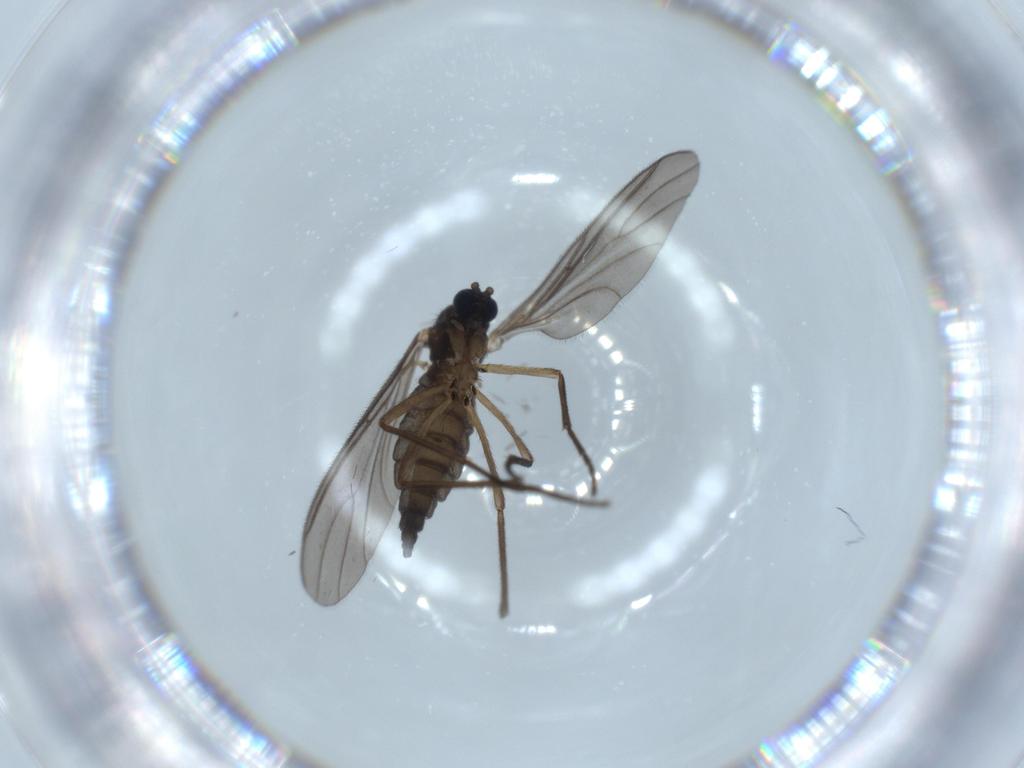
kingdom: Animalia
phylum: Arthropoda
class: Insecta
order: Diptera
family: Sciaridae
